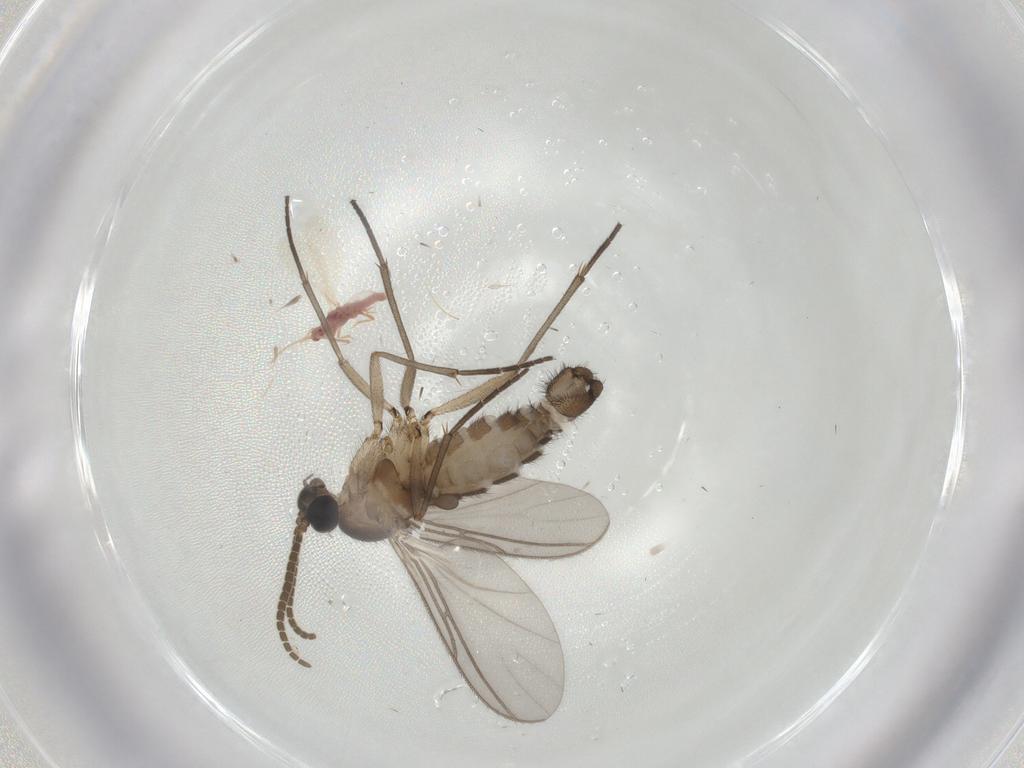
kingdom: Animalia
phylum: Arthropoda
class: Insecta
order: Diptera
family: Sciaridae
